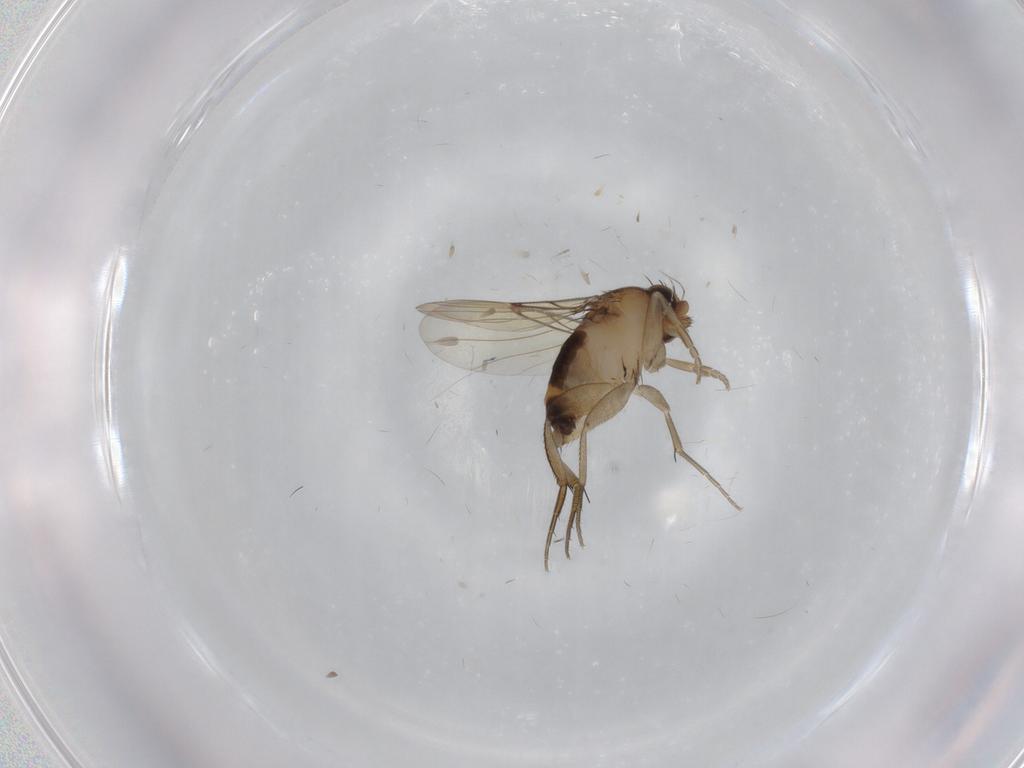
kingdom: Animalia
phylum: Arthropoda
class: Insecta
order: Diptera
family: Phoridae
